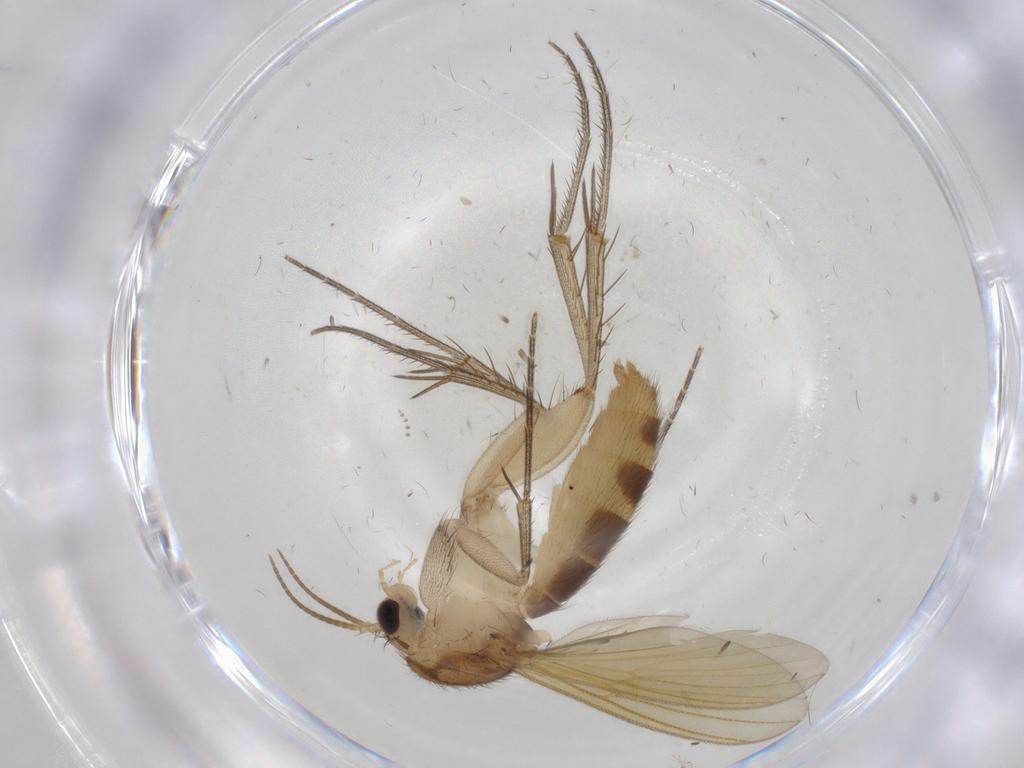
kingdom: Animalia
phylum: Arthropoda
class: Insecta
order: Diptera
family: Mycetophilidae
